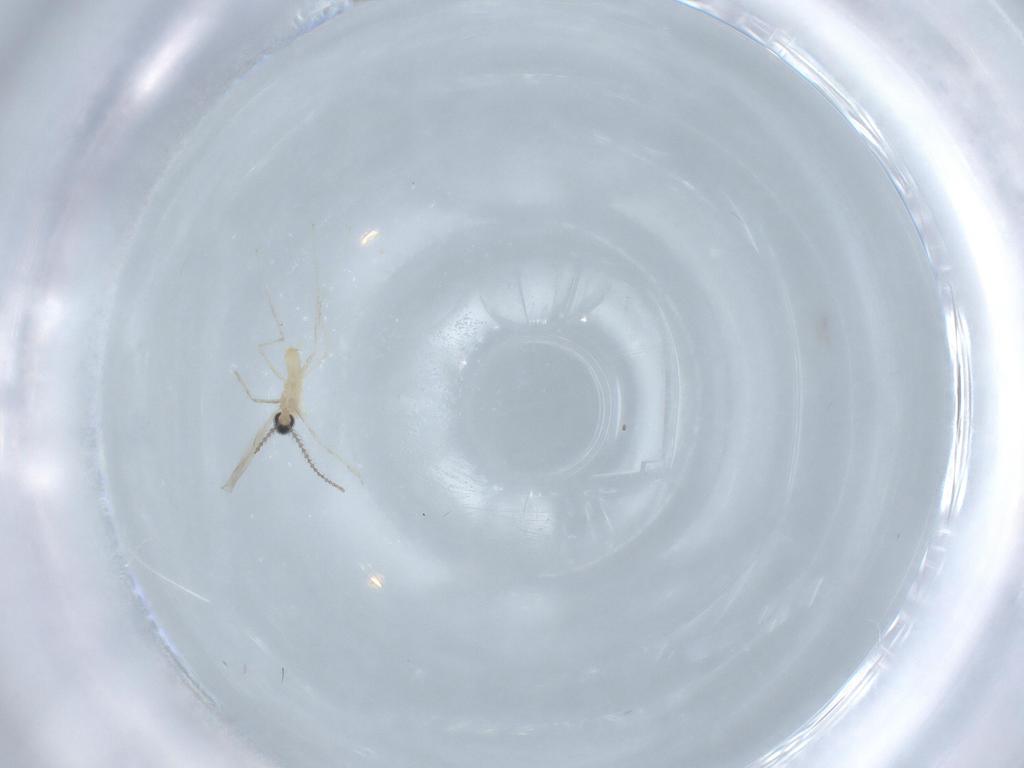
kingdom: Animalia
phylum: Arthropoda
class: Insecta
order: Diptera
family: Cecidomyiidae
